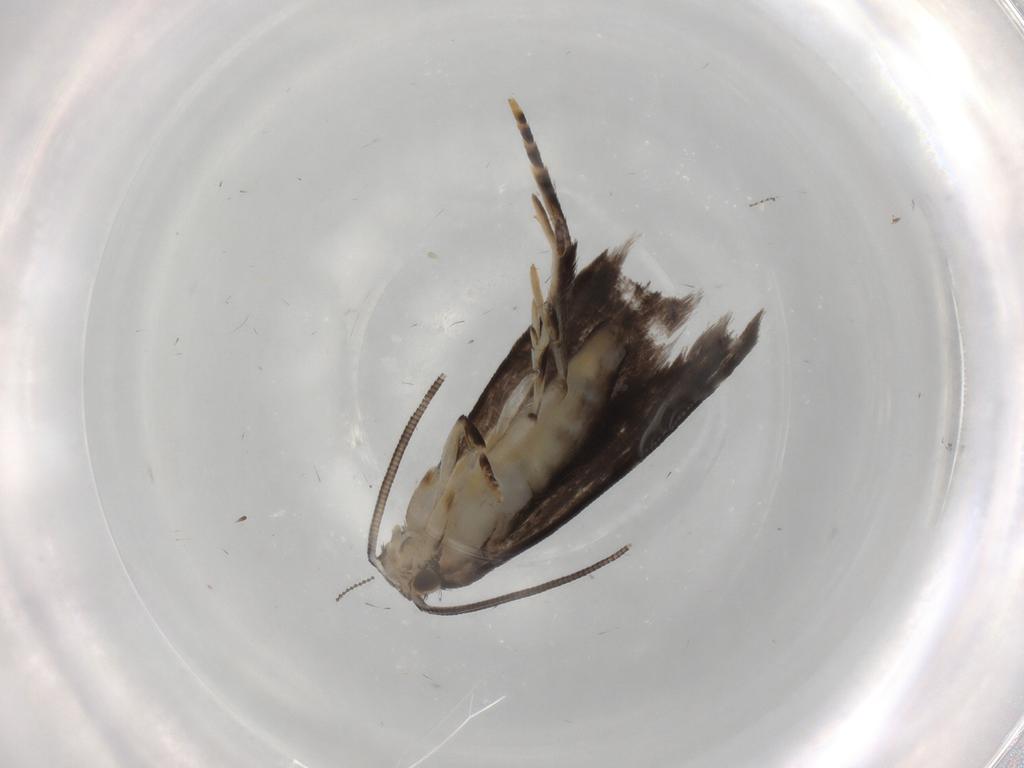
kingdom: Animalia
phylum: Arthropoda
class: Insecta
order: Lepidoptera
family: Dryadaulidae
